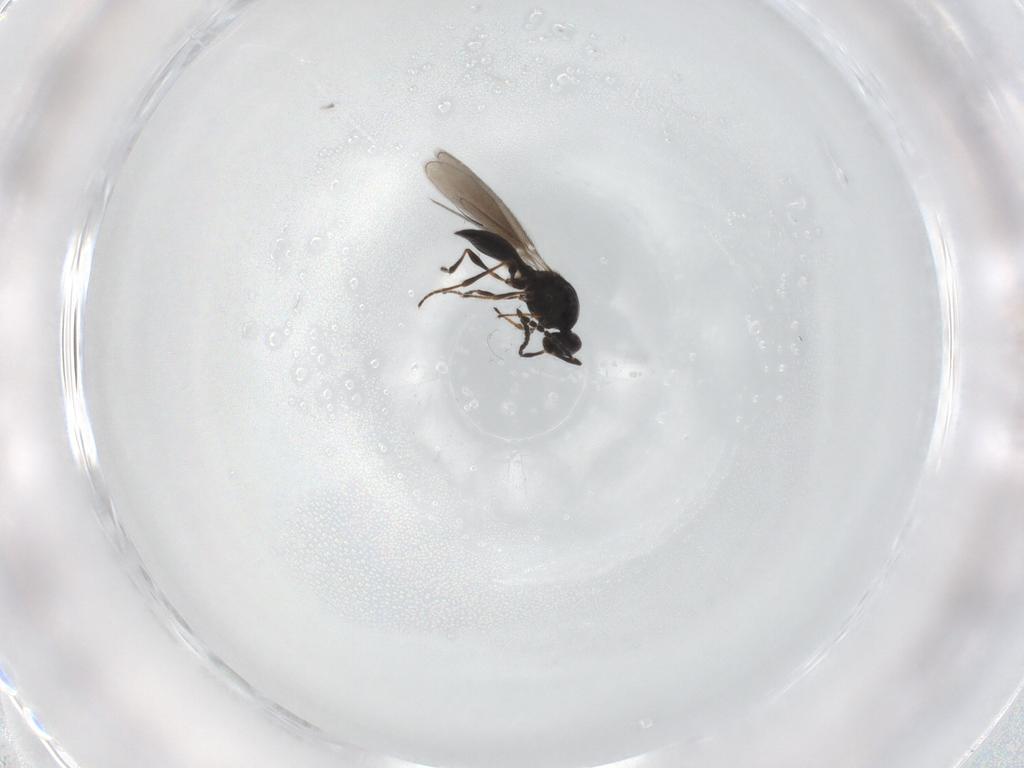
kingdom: Animalia
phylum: Arthropoda
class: Insecta
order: Hymenoptera
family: Platygastridae
